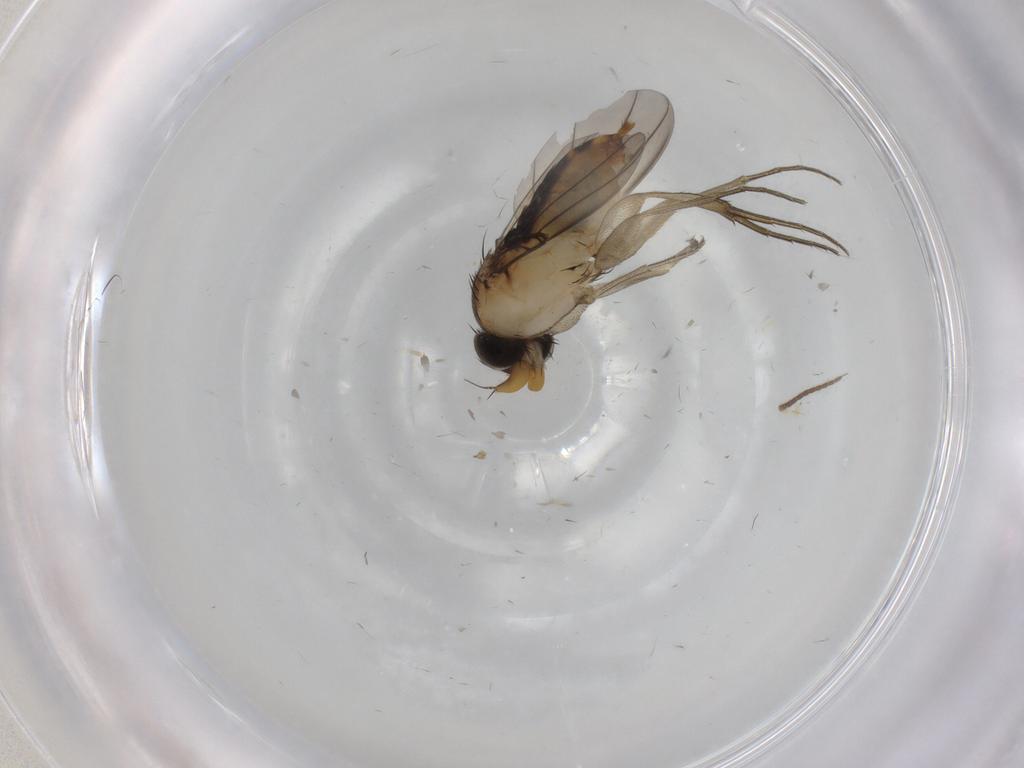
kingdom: Animalia
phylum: Arthropoda
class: Insecta
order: Diptera
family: Phoridae
